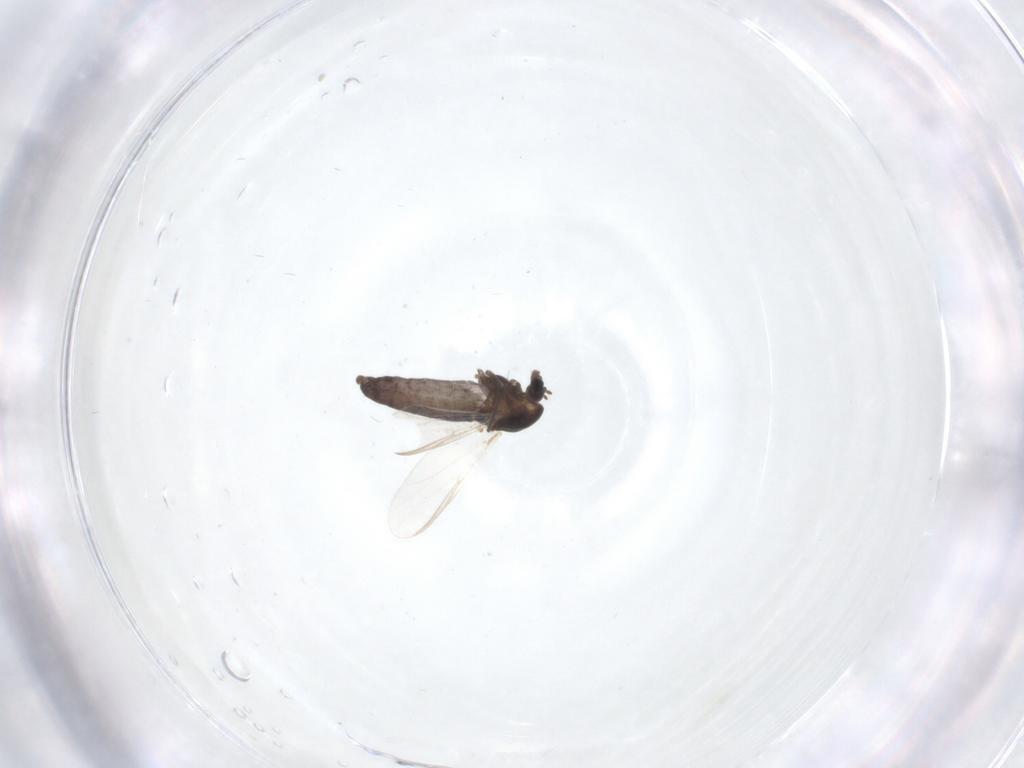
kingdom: Animalia
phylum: Arthropoda
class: Insecta
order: Diptera
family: Chironomidae
